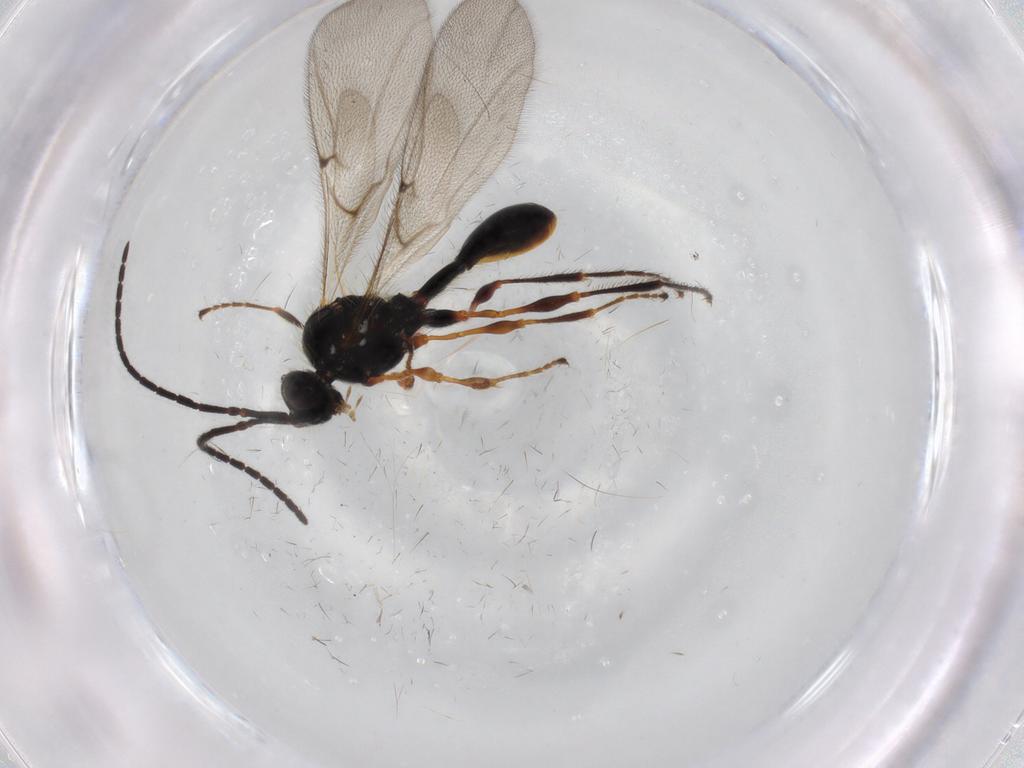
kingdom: Animalia
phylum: Arthropoda
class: Insecta
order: Hymenoptera
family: Diapriidae
